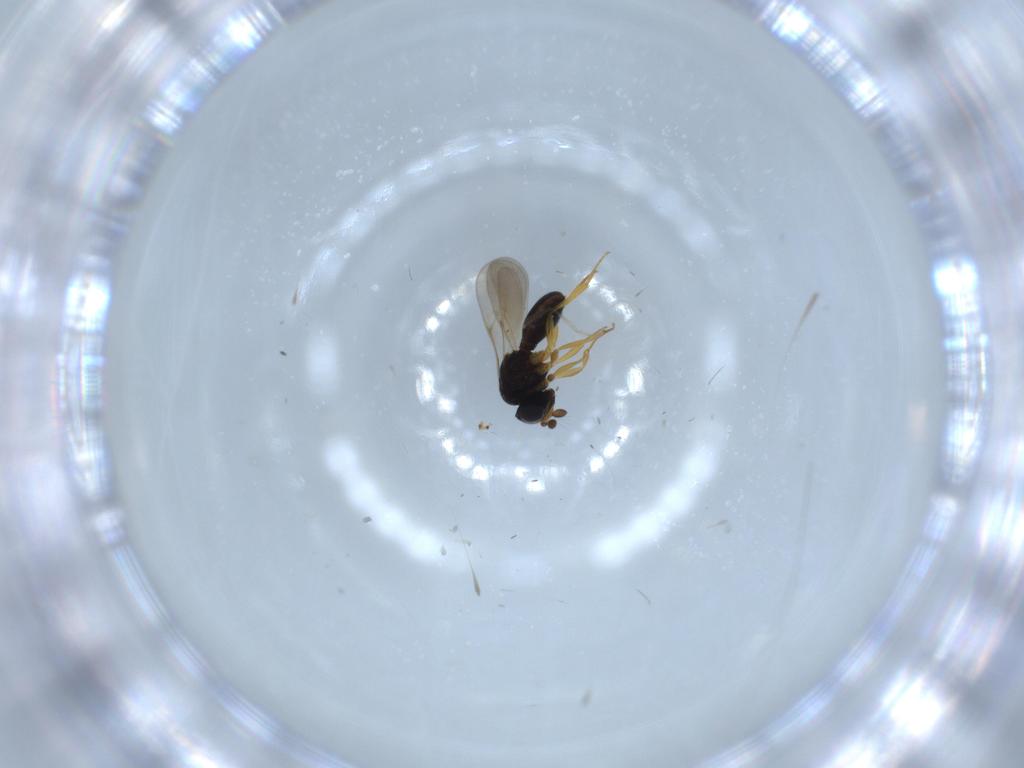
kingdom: Animalia
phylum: Arthropoda
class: Insecta
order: Hymenoptera
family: Scelionidae
